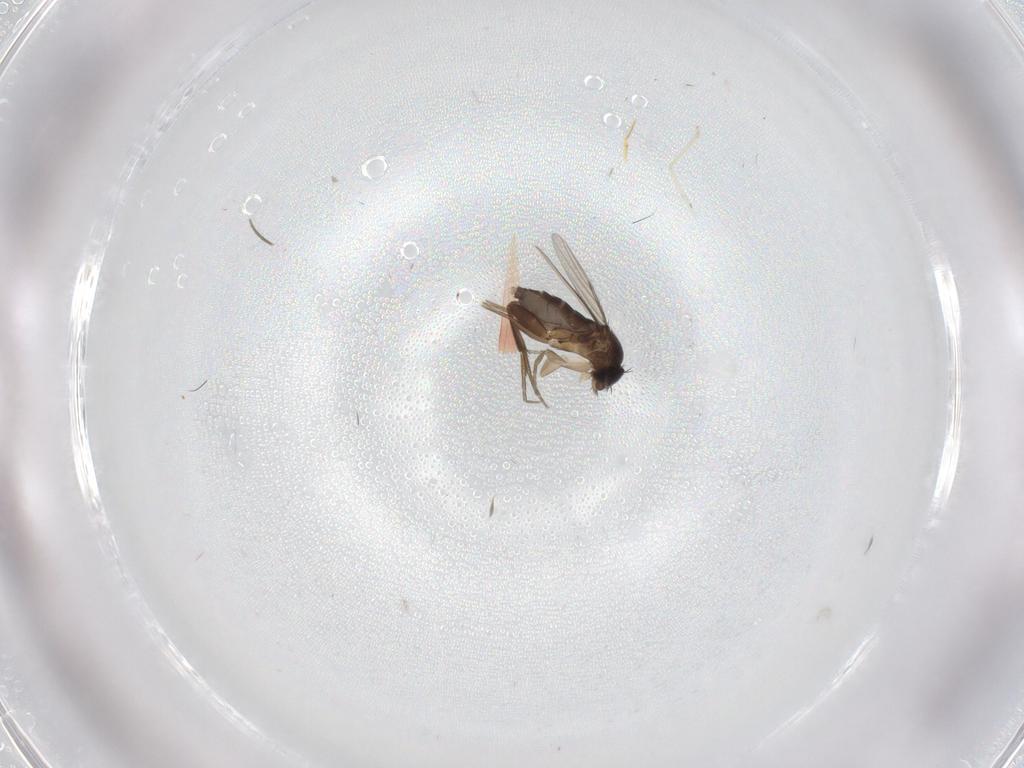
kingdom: Animalia
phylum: Arthropoda
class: Insecta
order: Diptera
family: Phoridae
